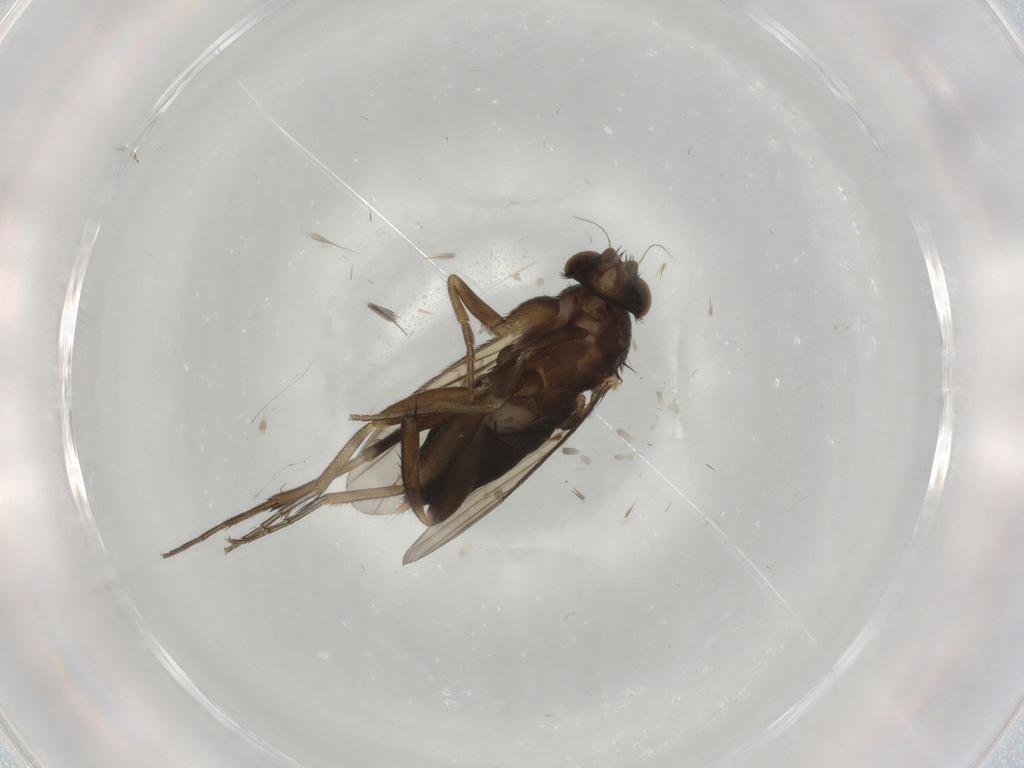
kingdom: Animalia
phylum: Arthropoda
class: Insecta
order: Diptera
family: Phoridae
